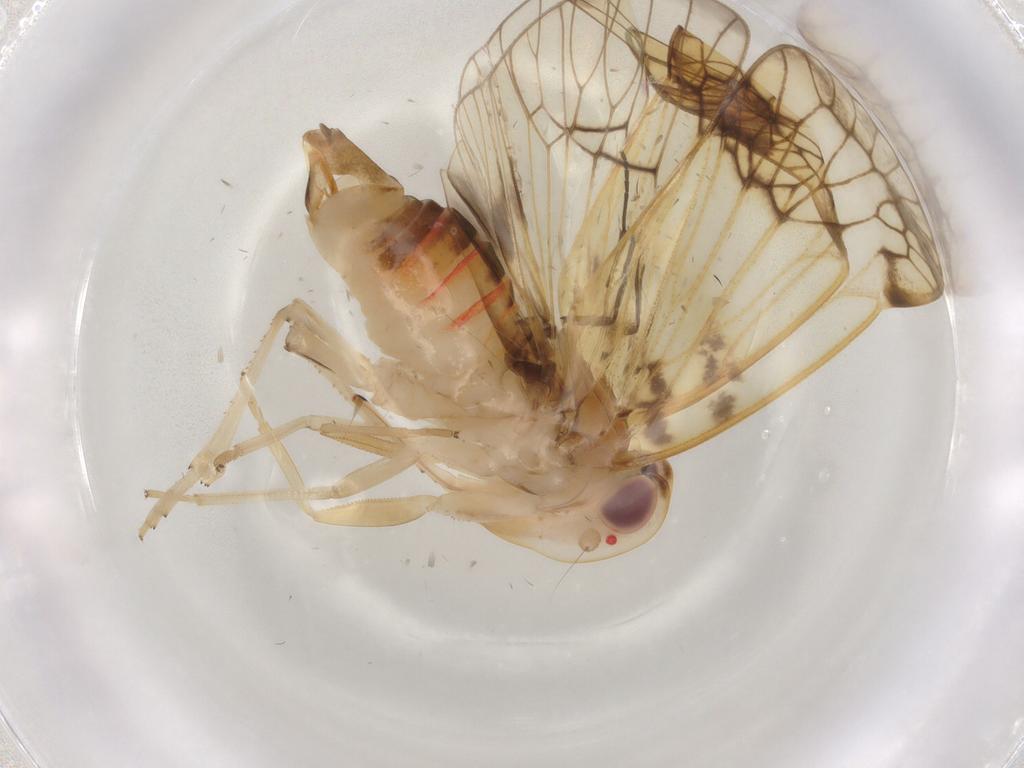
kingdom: Animalia
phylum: Arthropoda
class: Insecta
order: Hemiptera
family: Cixiidae
